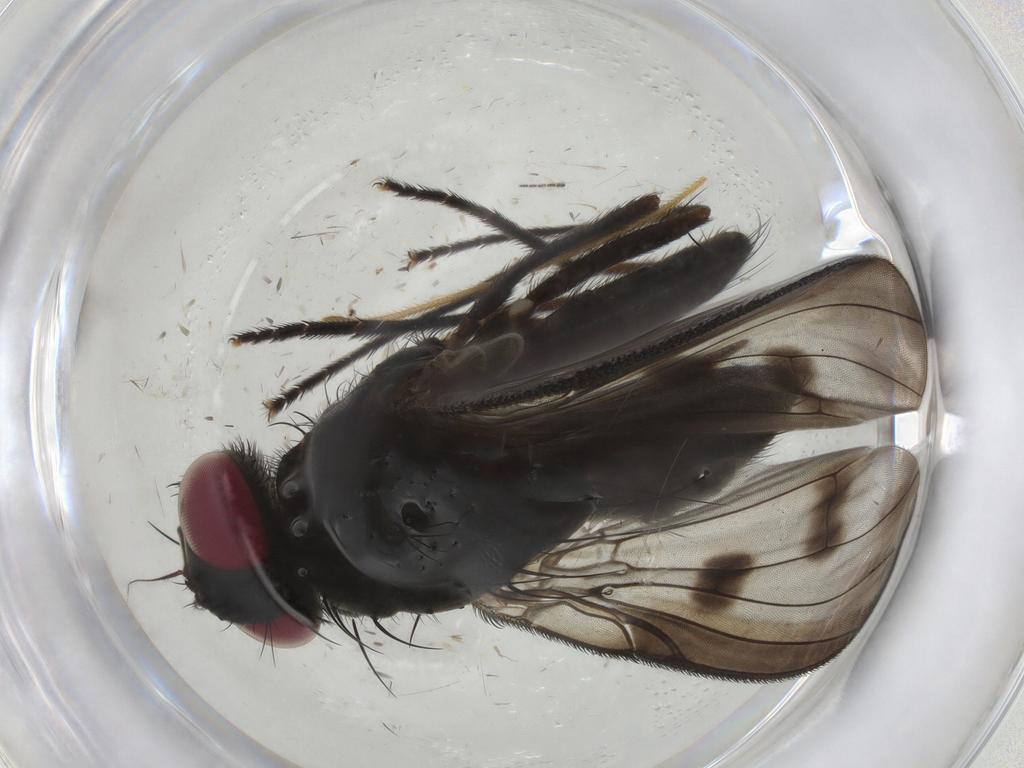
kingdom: Animalia
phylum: Arthropoda
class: Insecta
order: Diptera
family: Muscidae
